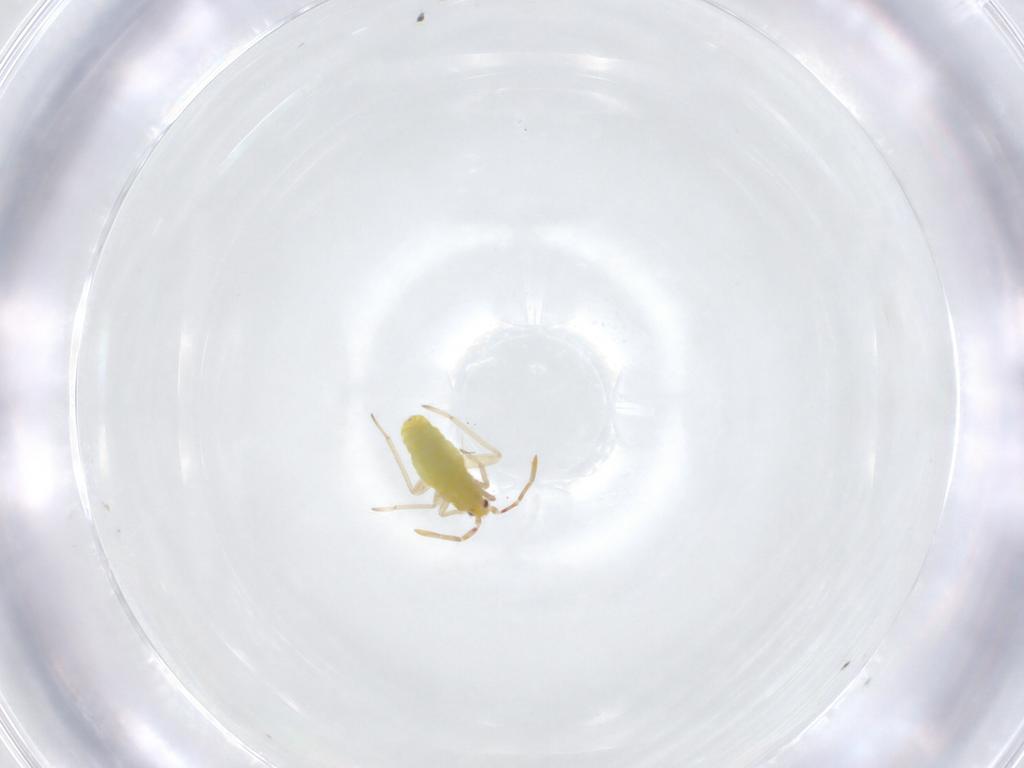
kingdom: Animalia
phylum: Arthropoda
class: Insecta
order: Hemiptera
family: Miridae
